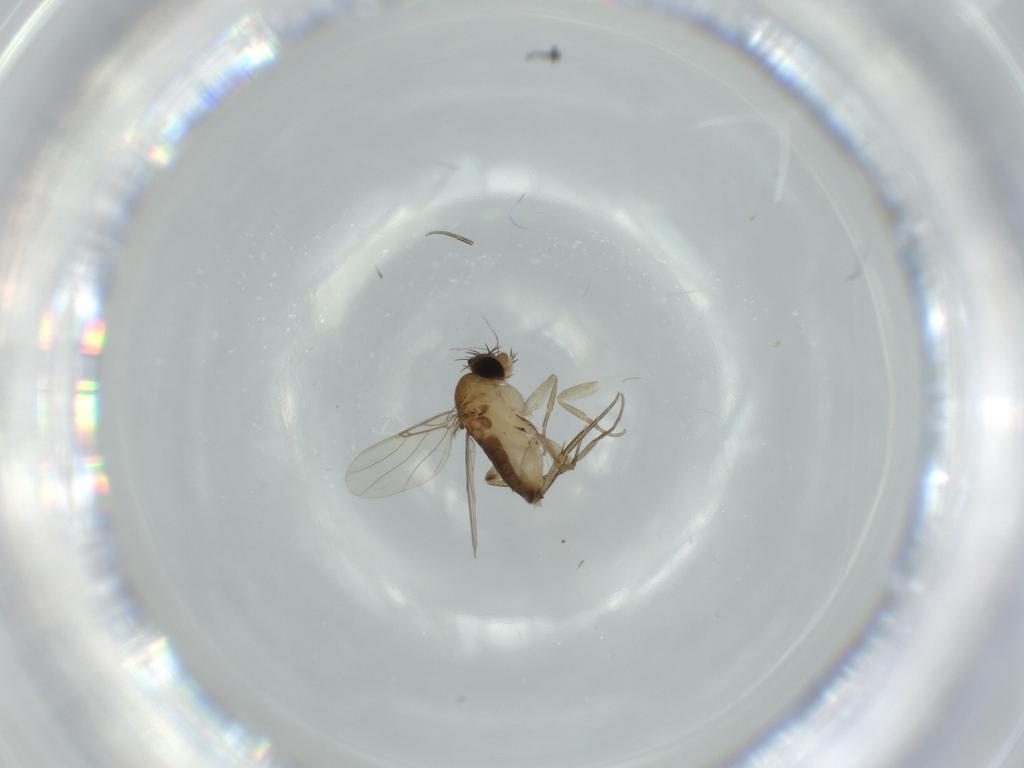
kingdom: Animalia
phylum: Arthropoda
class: Insecta
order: Diptera
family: Phoridae
